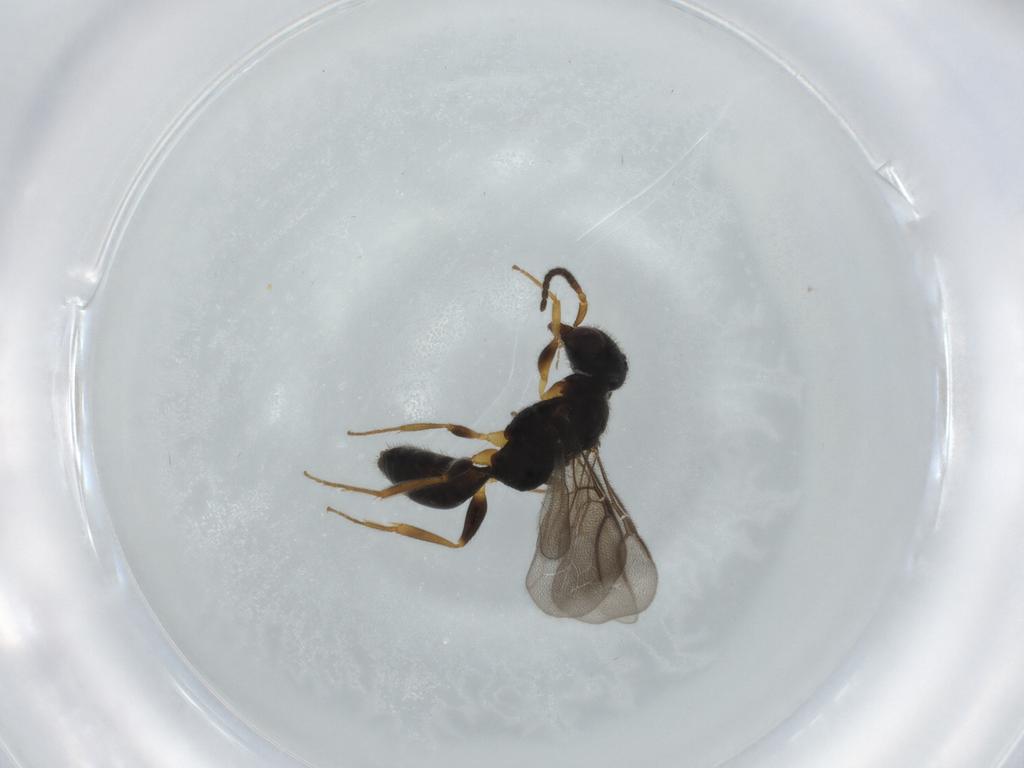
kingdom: Animalia
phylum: Arthropoda
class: Insecta
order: Hymenoptera
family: Bethylidae
